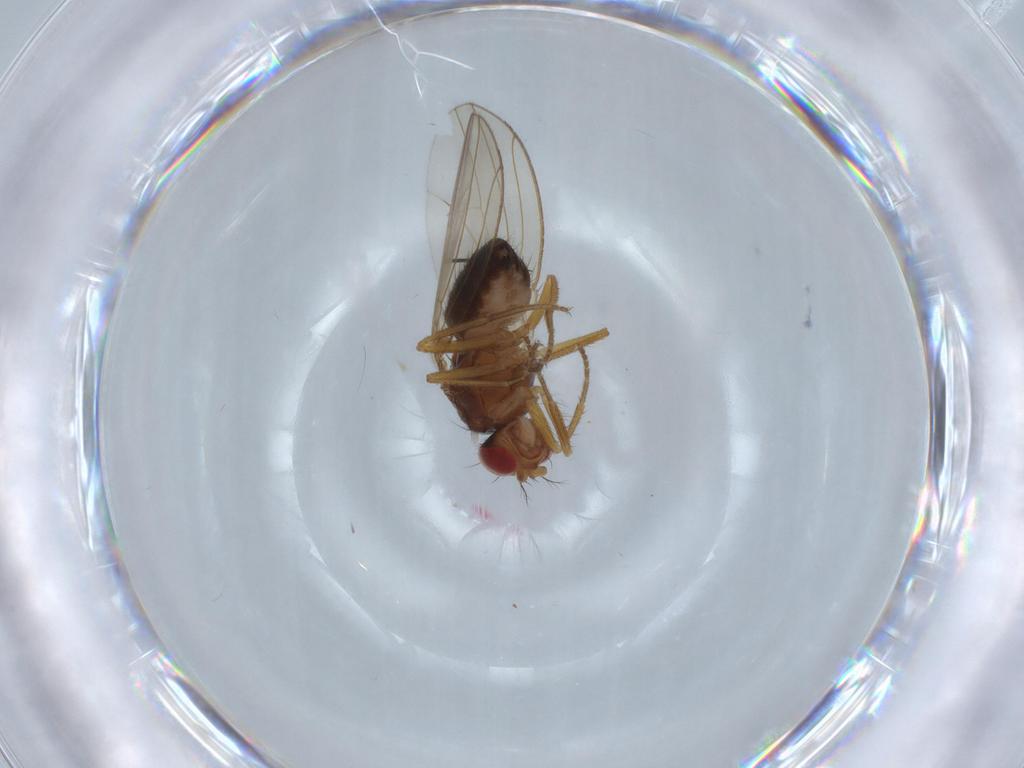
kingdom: Animalia
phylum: Arthropoda
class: Insecta
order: Diptera
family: Drosophilidae
